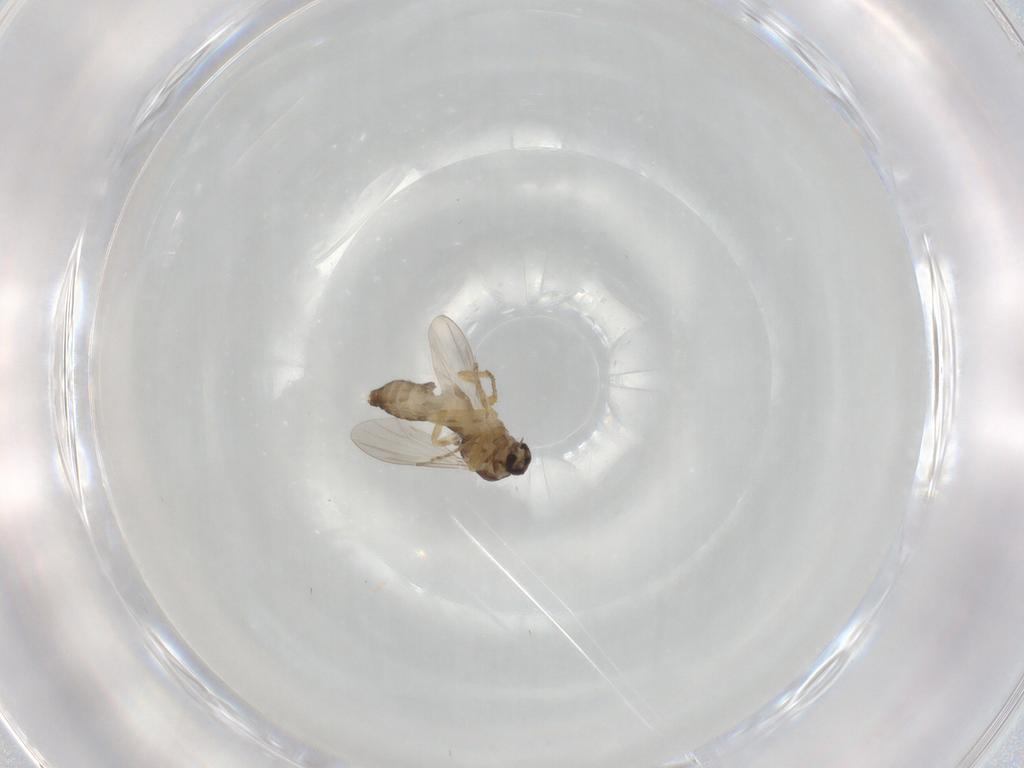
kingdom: Animalia
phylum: Arthropoda
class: Insecta
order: Diptera
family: Ceratopogonidae
